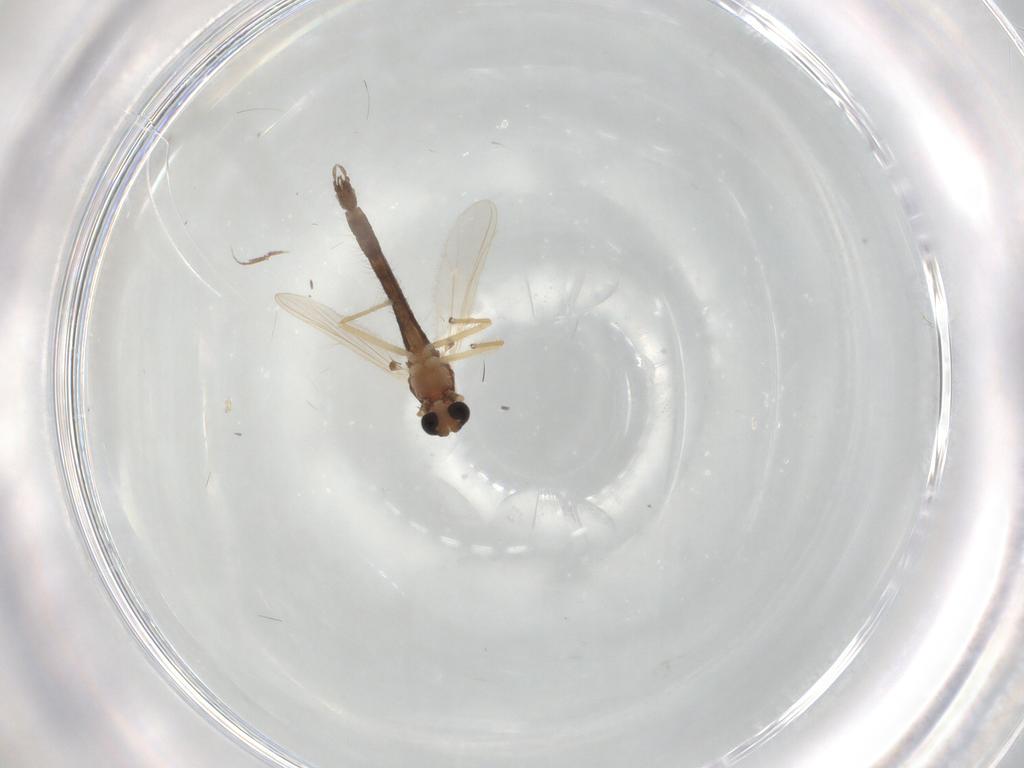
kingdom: Animalia
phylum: Arthropoda
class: Insecta
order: Diptera
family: Chironomidae
